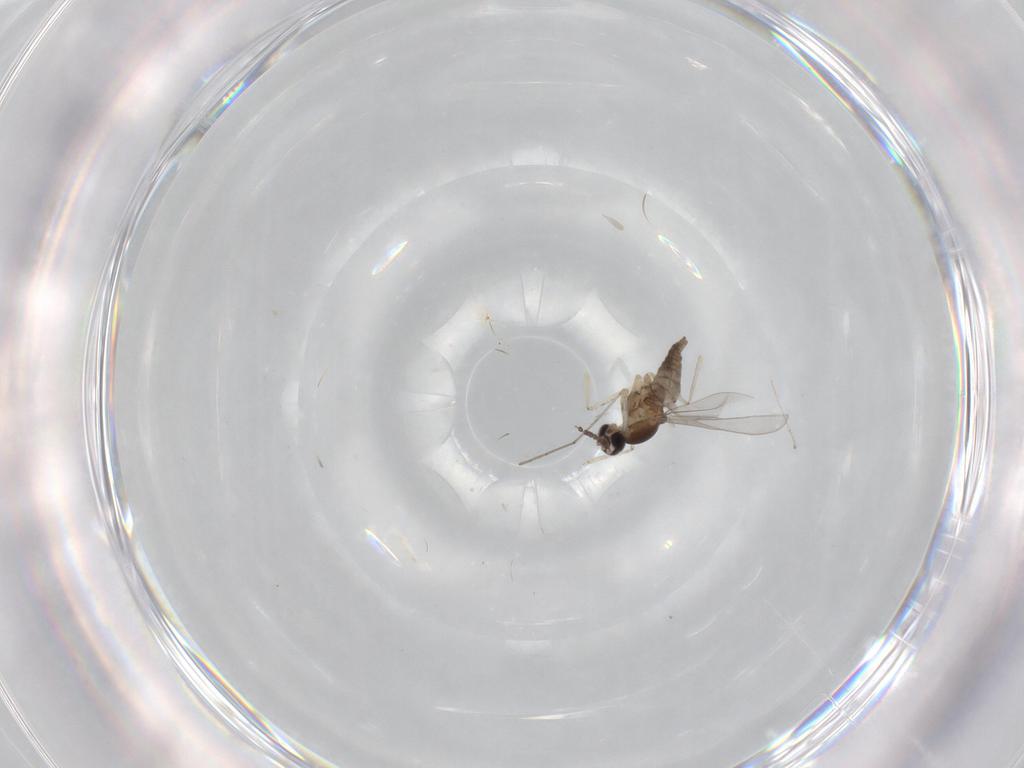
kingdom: Animalia
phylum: Arthropoda
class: Insecta
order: Diptera
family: Cecidomyiidae
